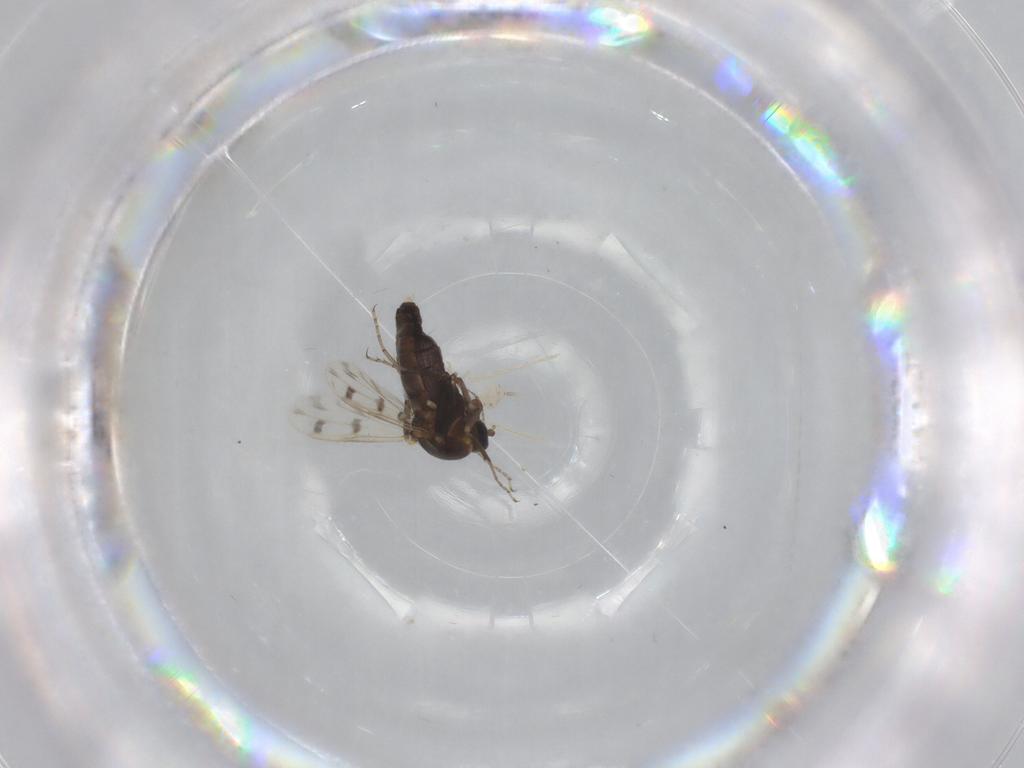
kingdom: Animalia
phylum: Arthropoda
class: Insecta
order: Diptera
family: Ceratopogonidae
